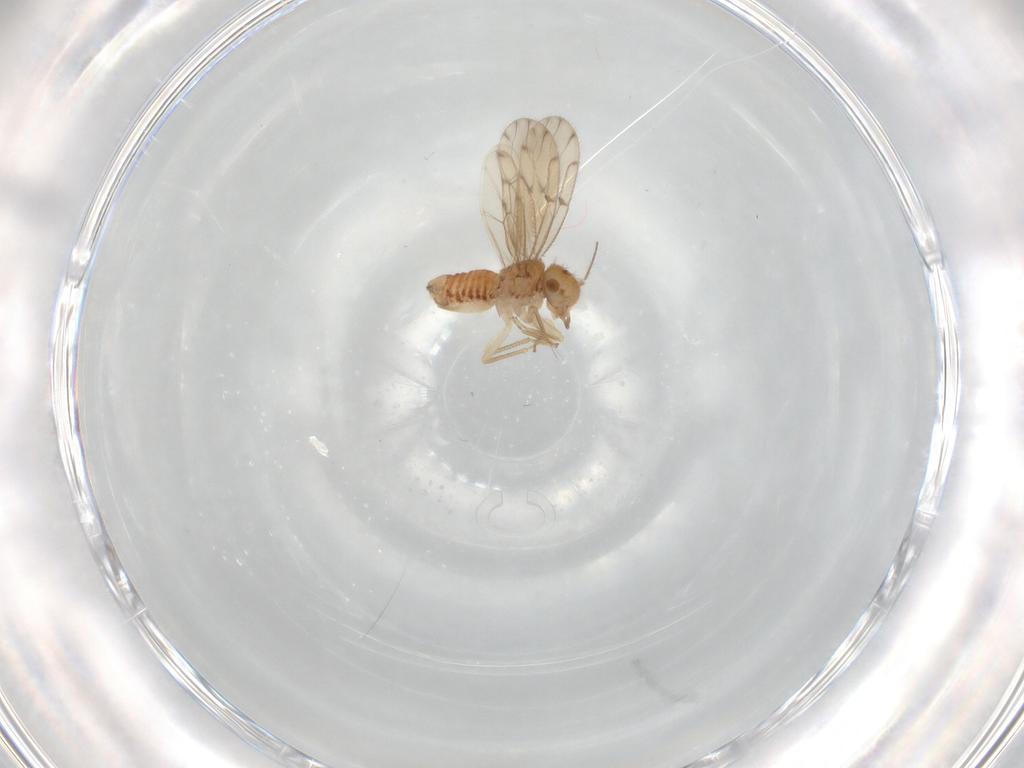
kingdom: Animalia
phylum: Arthropoda
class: Insecta
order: Psocodea
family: Ectopsocidae
